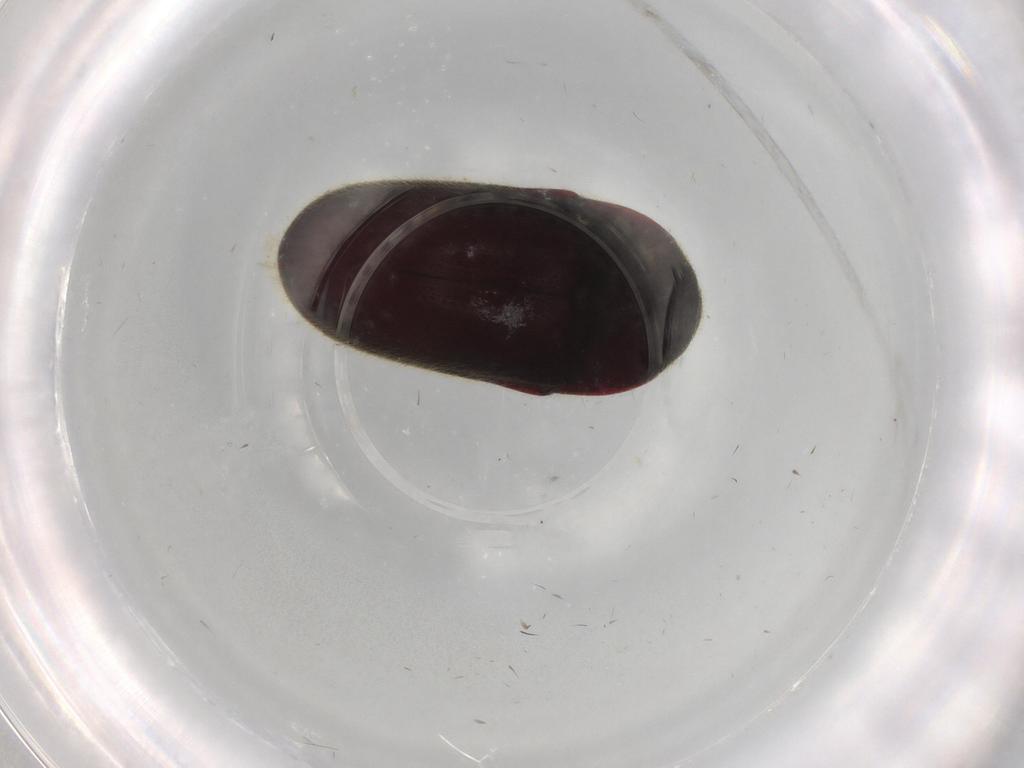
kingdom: Animalia
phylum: Arthropoda
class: Insecta
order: Coleoptera
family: Throscidae
